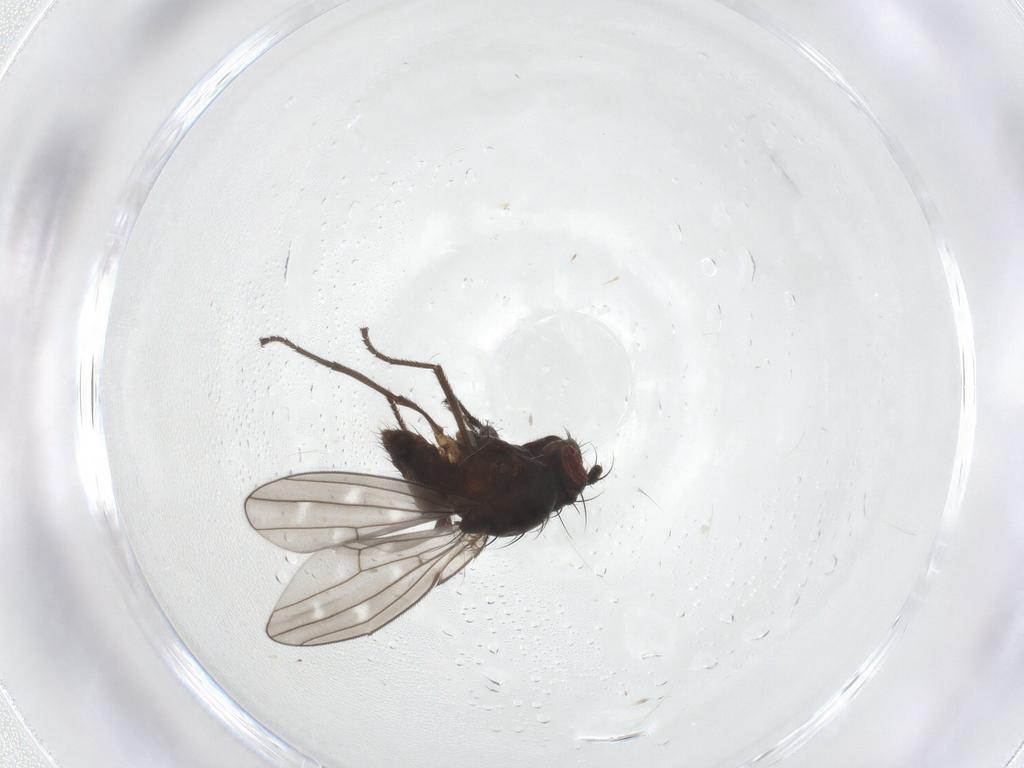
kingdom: Animalia
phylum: Arthropoda
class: Insecta
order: Diptera
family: Ephydridae
